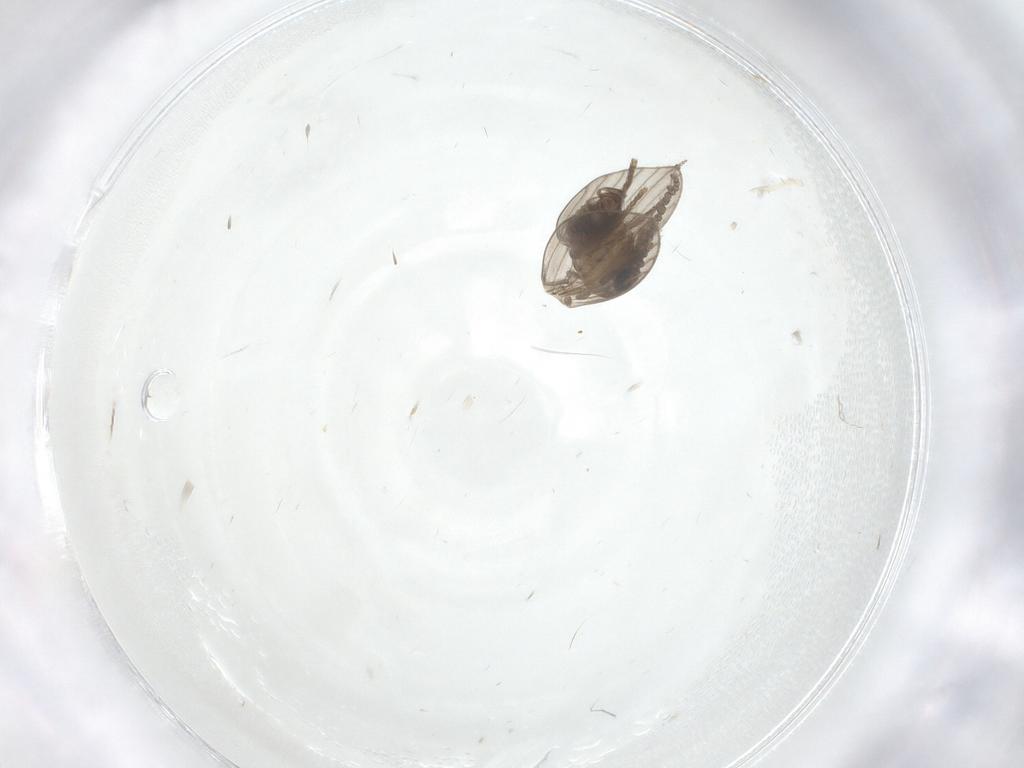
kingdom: Animalia
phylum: Arthropoda
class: Insecta
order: Diptera
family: Psychodidae
